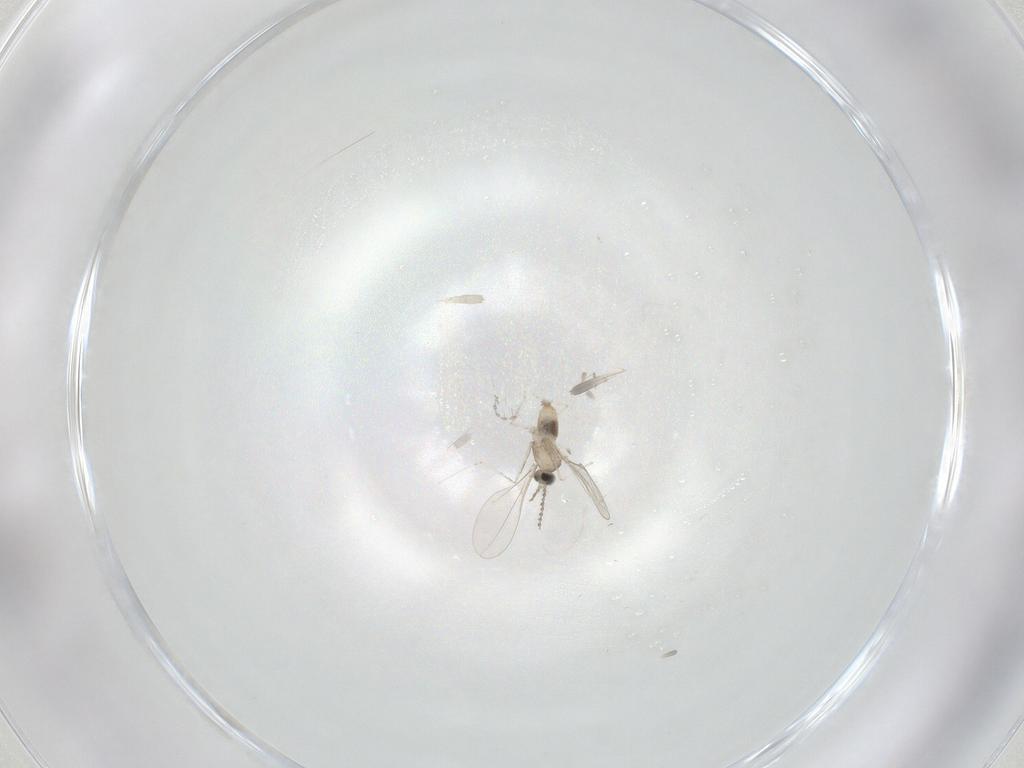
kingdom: Animalia
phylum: Arthropoda
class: Insecta
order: Diptera
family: Cecidomyiidae
